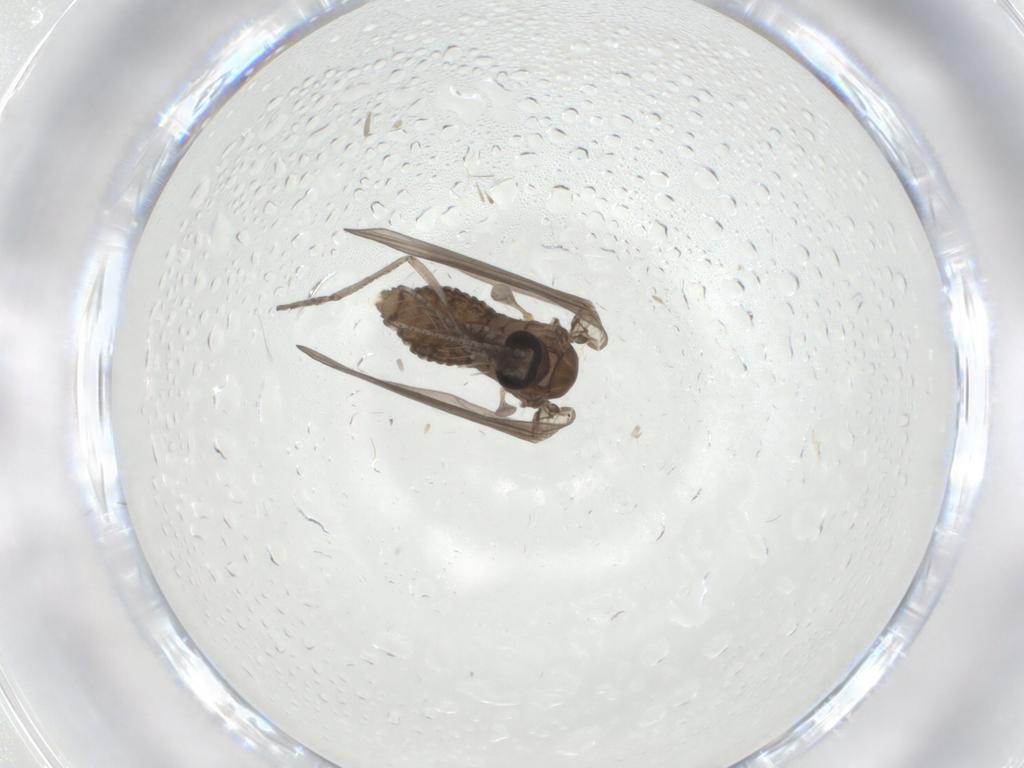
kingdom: Animalia
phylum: Arthropoda
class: Insecta
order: Diptera
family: Psychodidae
